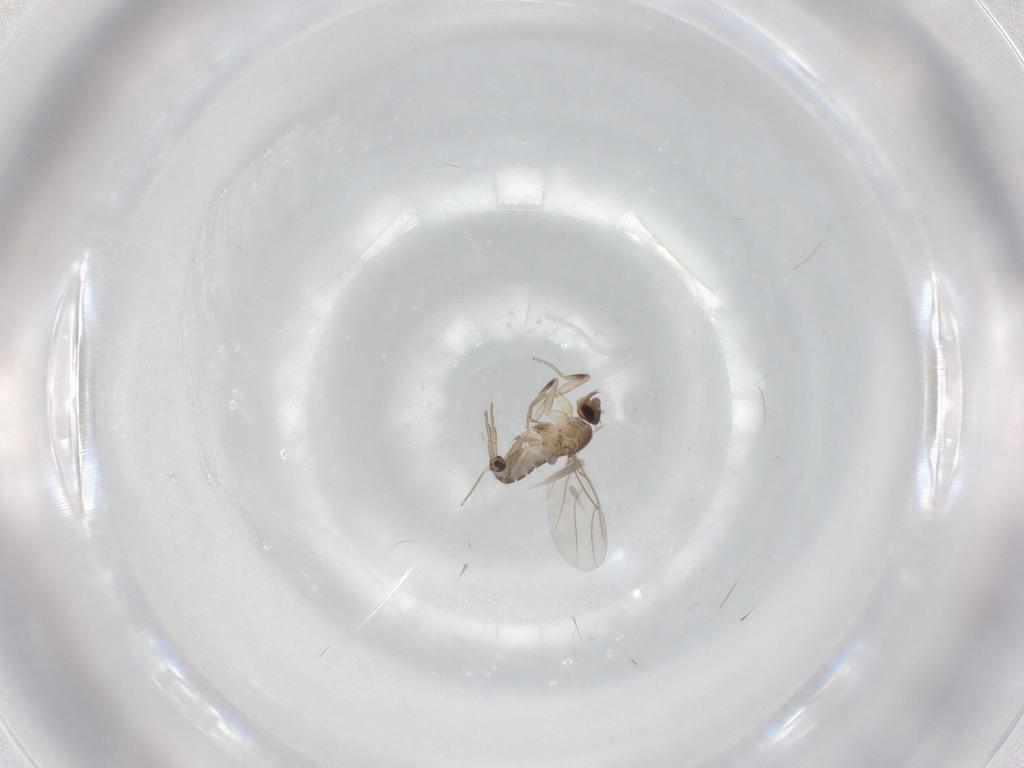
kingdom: Animalia
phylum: Arthropoda
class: Insecta
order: Diptera
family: Phoridae
